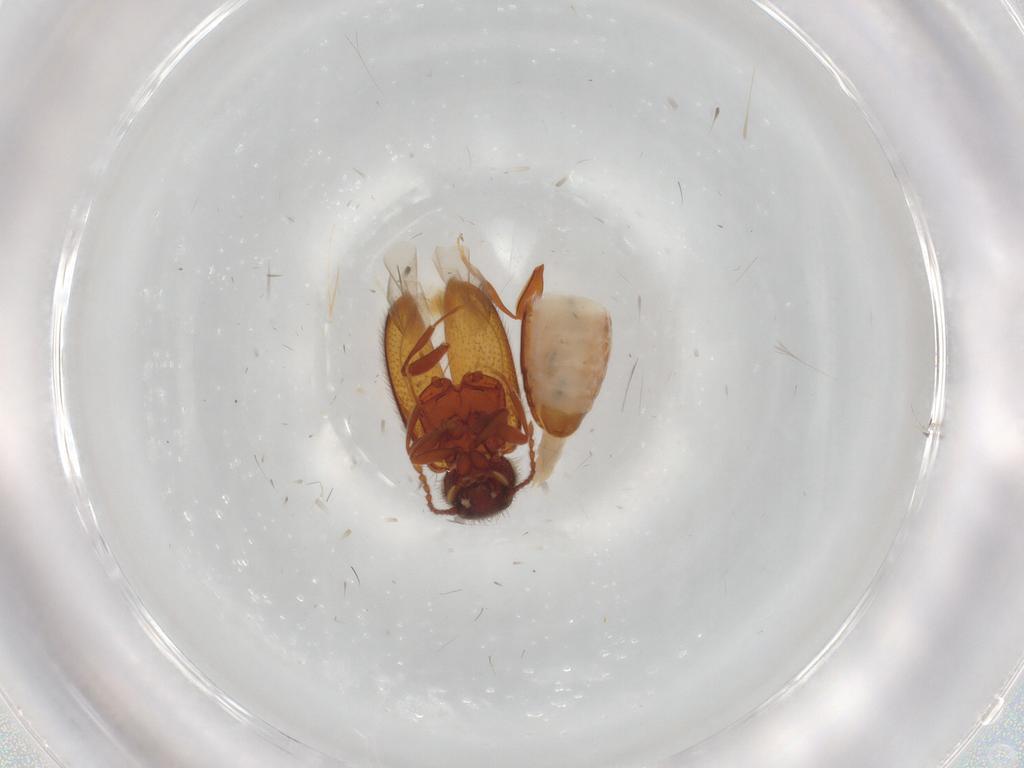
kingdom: Animalia
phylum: Arthropoda
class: Insecta
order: Coleoptera
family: Aderidae
